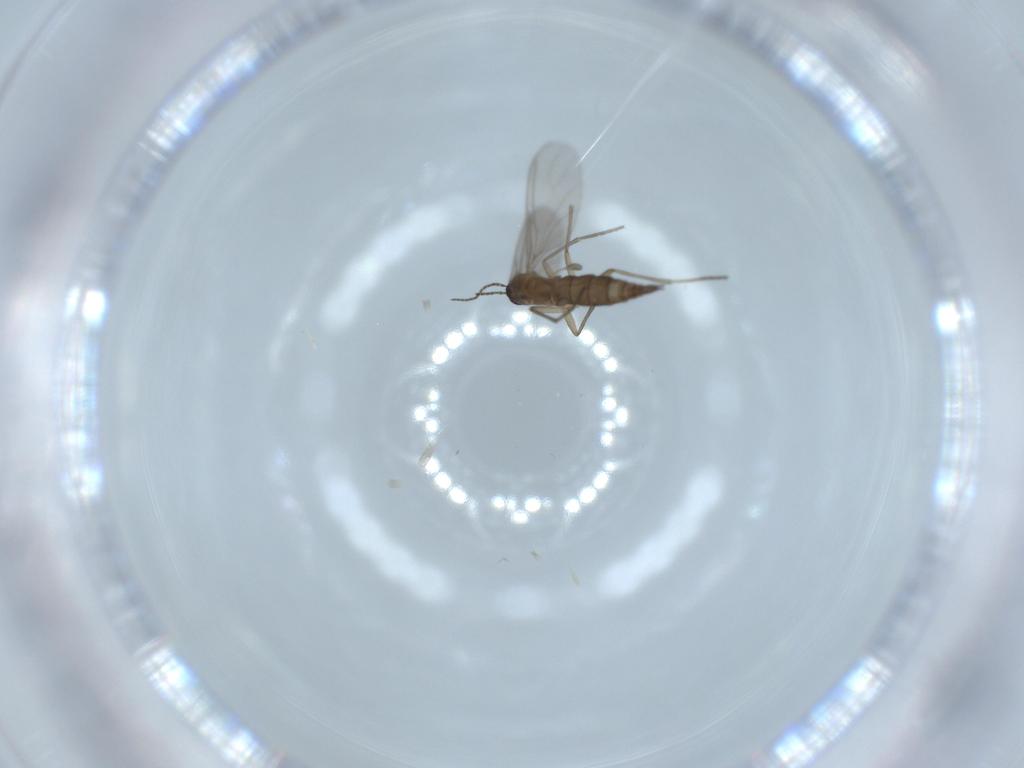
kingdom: Animalia
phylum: Arthropoda
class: Insecta
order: Diptera
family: Sciaridae
